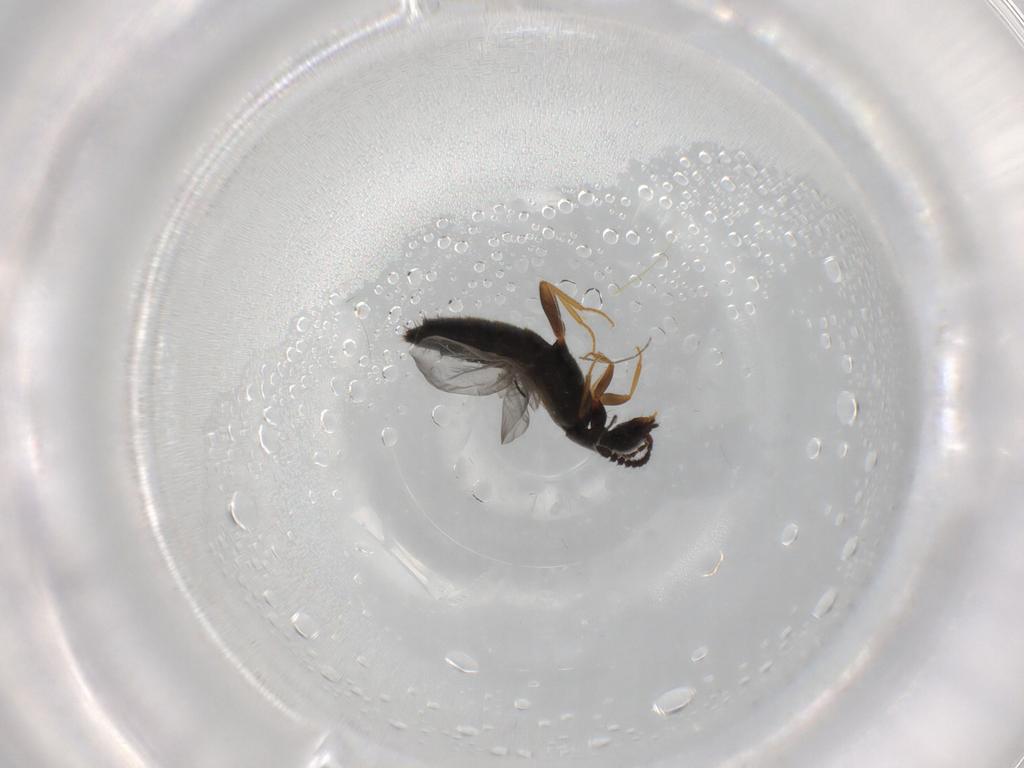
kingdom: Animalia
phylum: Arthropoda
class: Insecta
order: Coleoptera
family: Staphylinidae
